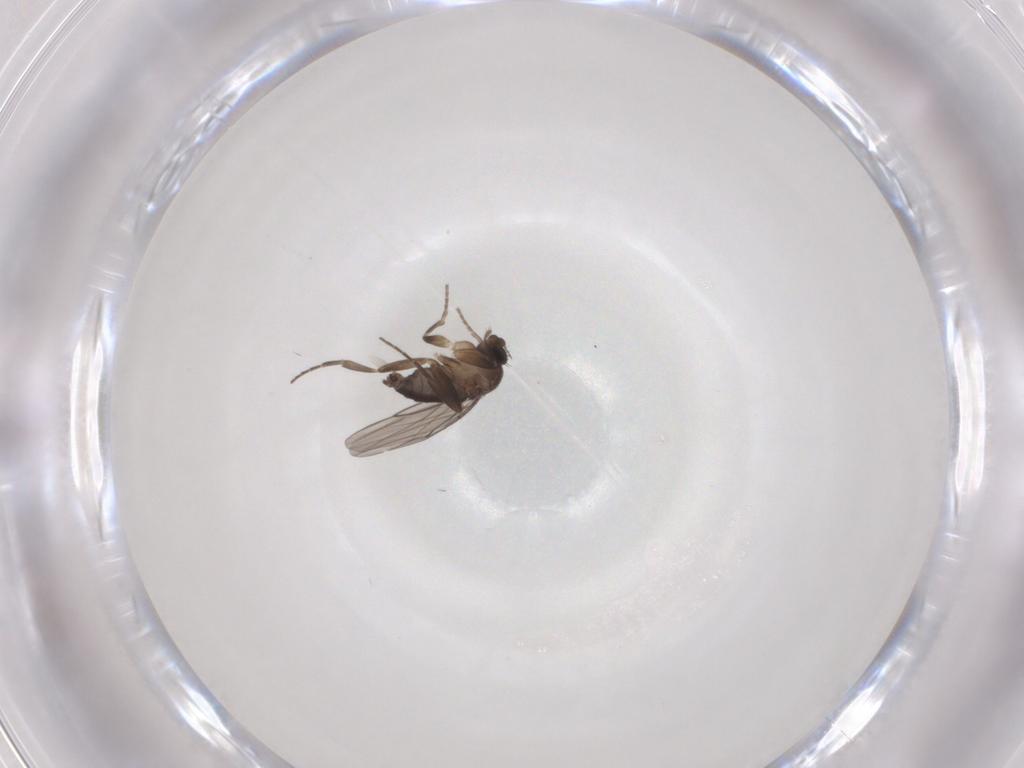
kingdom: Animalia
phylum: Arthropoda
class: Insecta
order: Diptera
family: Phoridae
